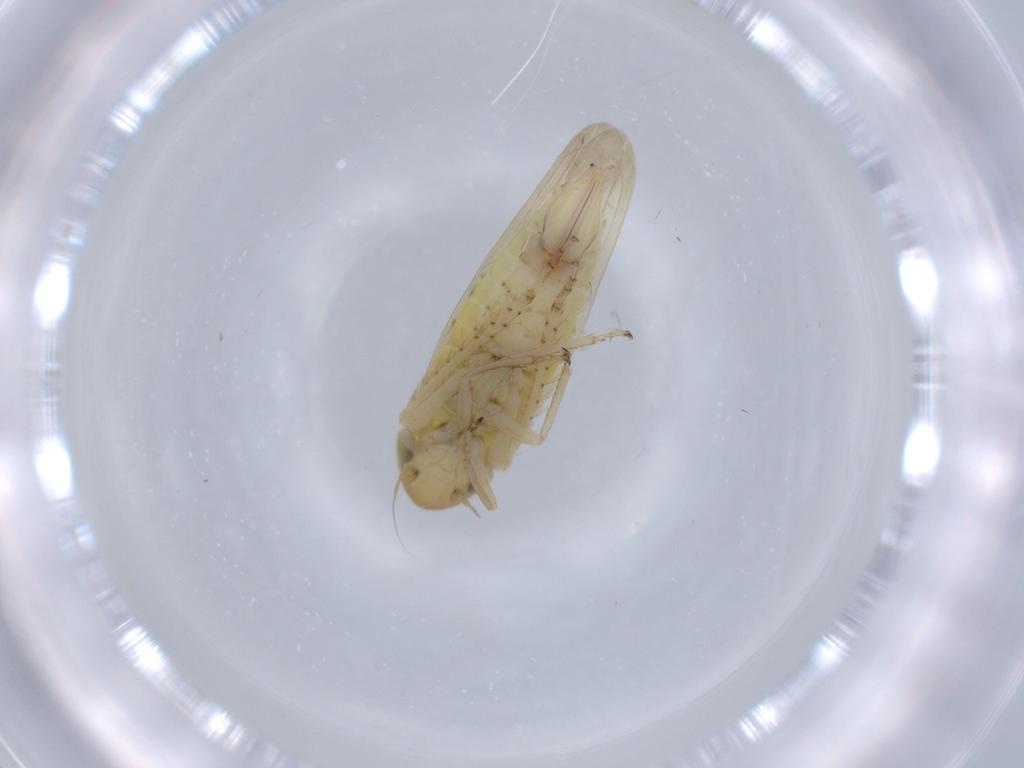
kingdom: Animalia
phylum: Arthropoda
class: Insecta
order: Hemiptera
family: Cicadellidae
